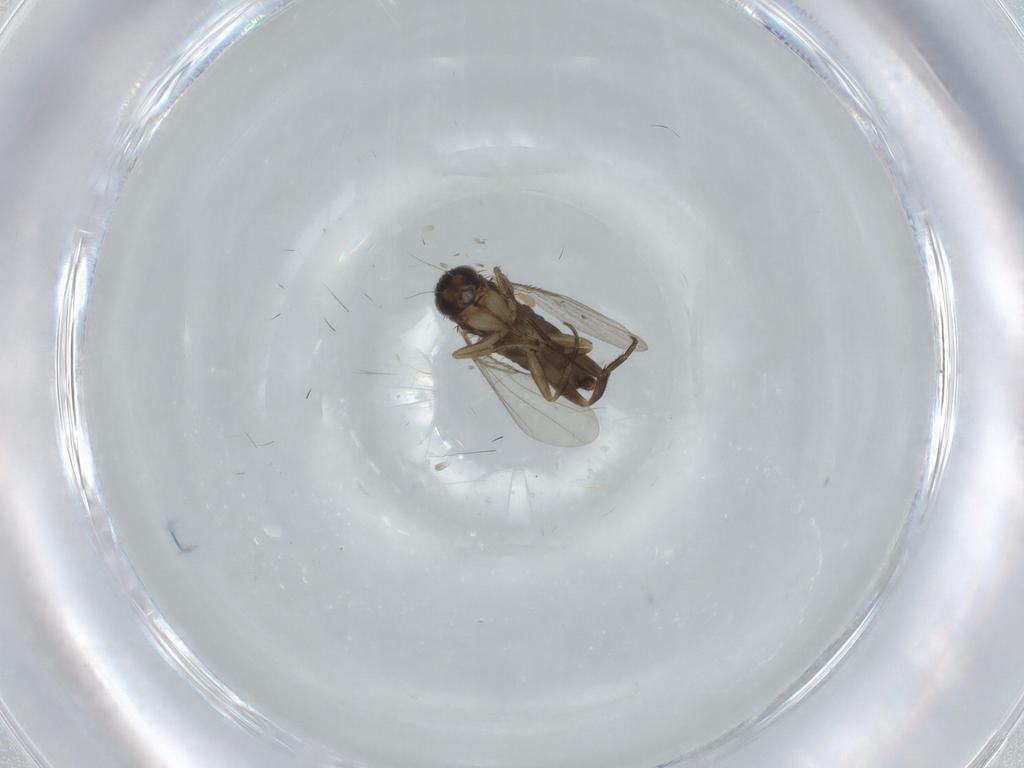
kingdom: Animalia
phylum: Arthropoda
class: Insecta
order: Diptera
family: Phoridae
